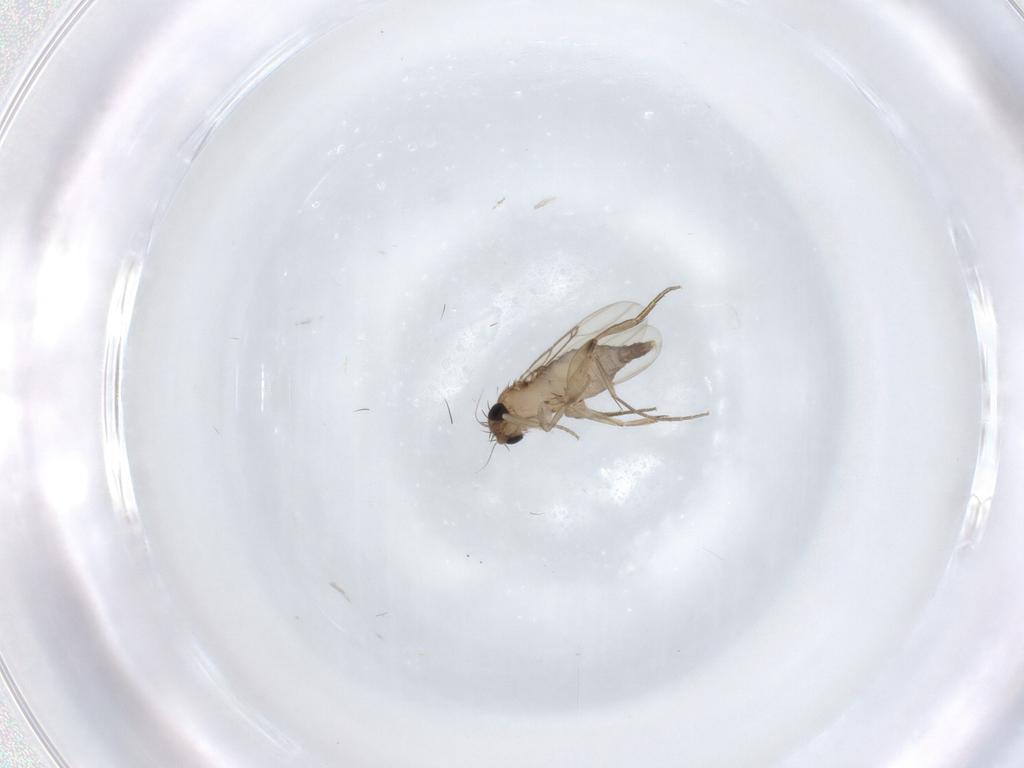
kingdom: Animalia
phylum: Arthropoda
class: Insecta
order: Diptera
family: Phoridae
